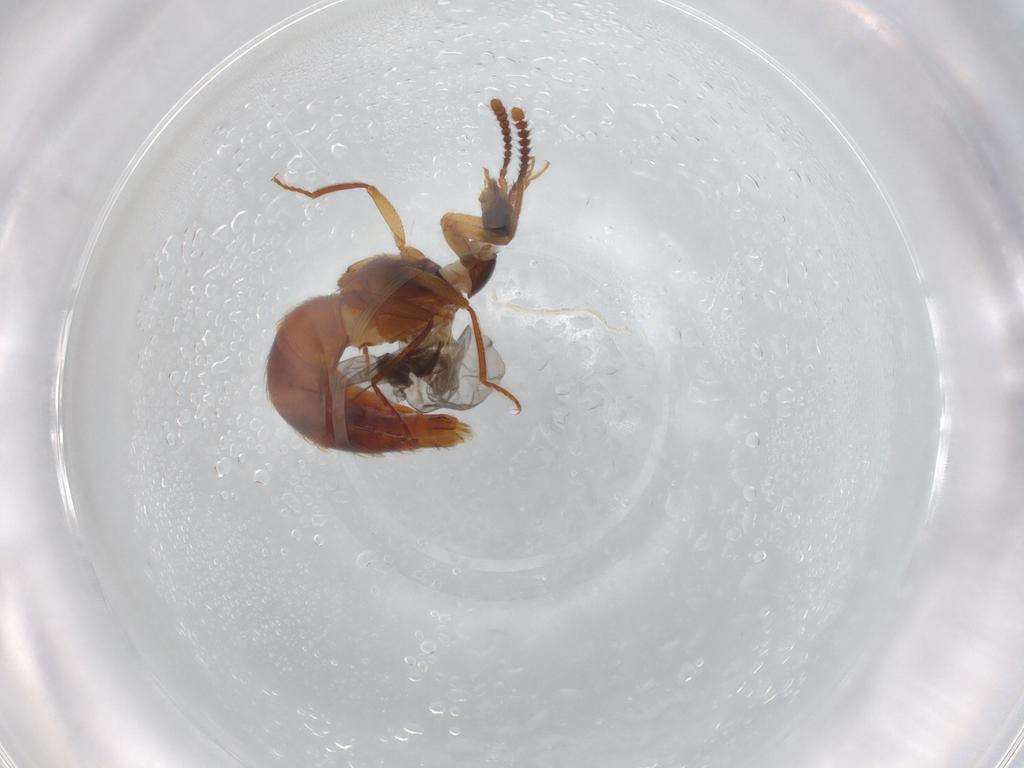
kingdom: Animalia
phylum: Arthropoda
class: Insecta
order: Coleoptera
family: Staphylinidae
